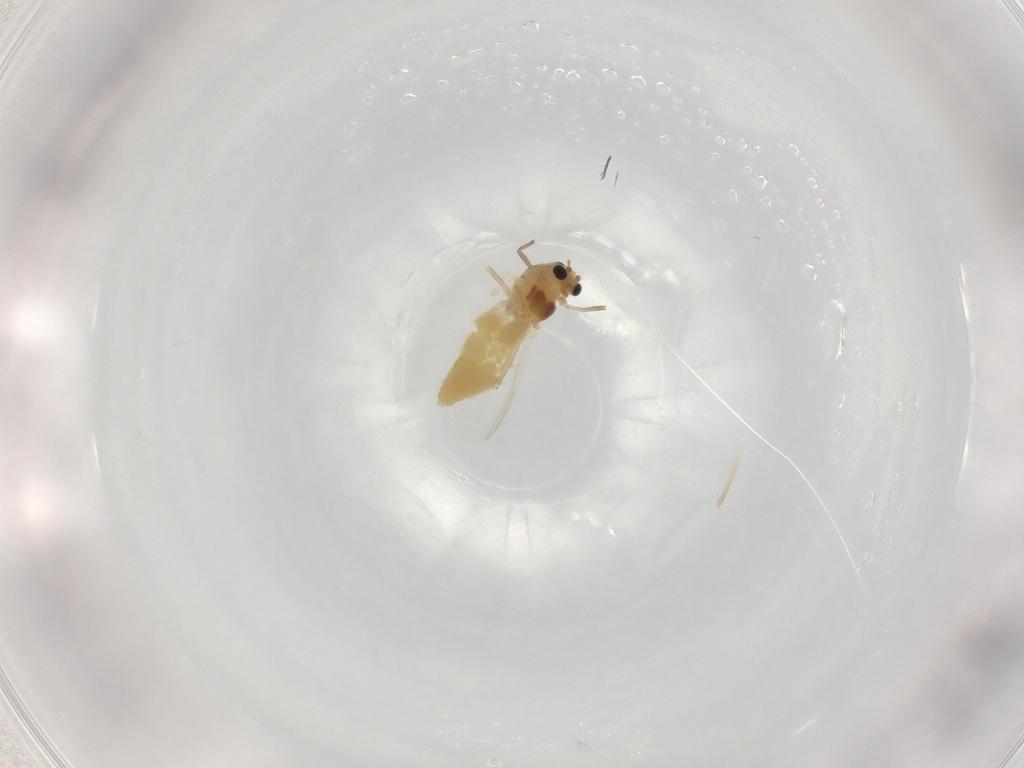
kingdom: Animalia
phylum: Arthropoda
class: Insecta
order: Diptera
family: Chironomidae
